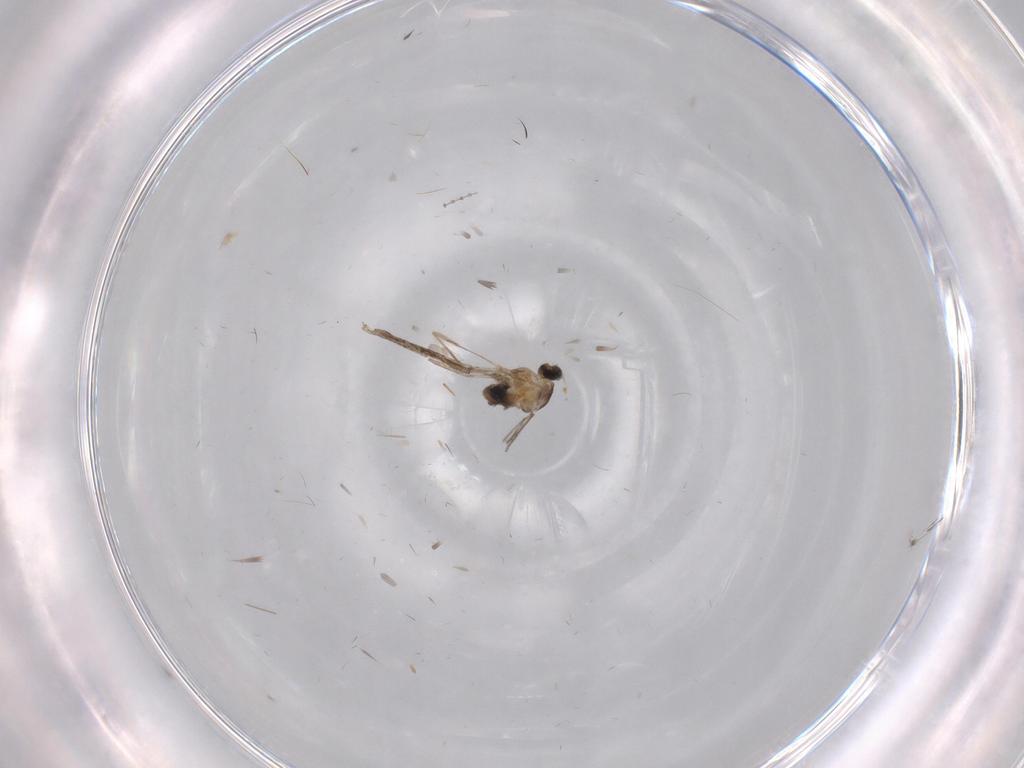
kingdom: Animalia
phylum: Arthropoda
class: Insecta
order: Diptera
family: Cecidomyiidae
